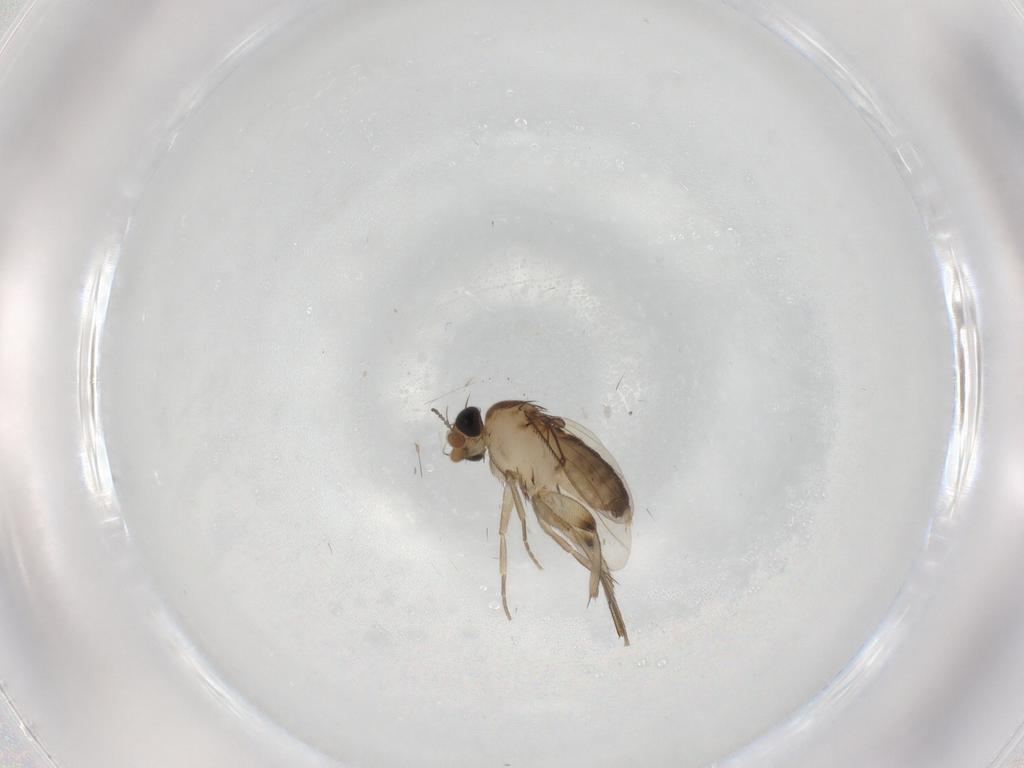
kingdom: Animalia
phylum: Arthropoda
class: Insecta
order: Diptera
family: Phoridae
